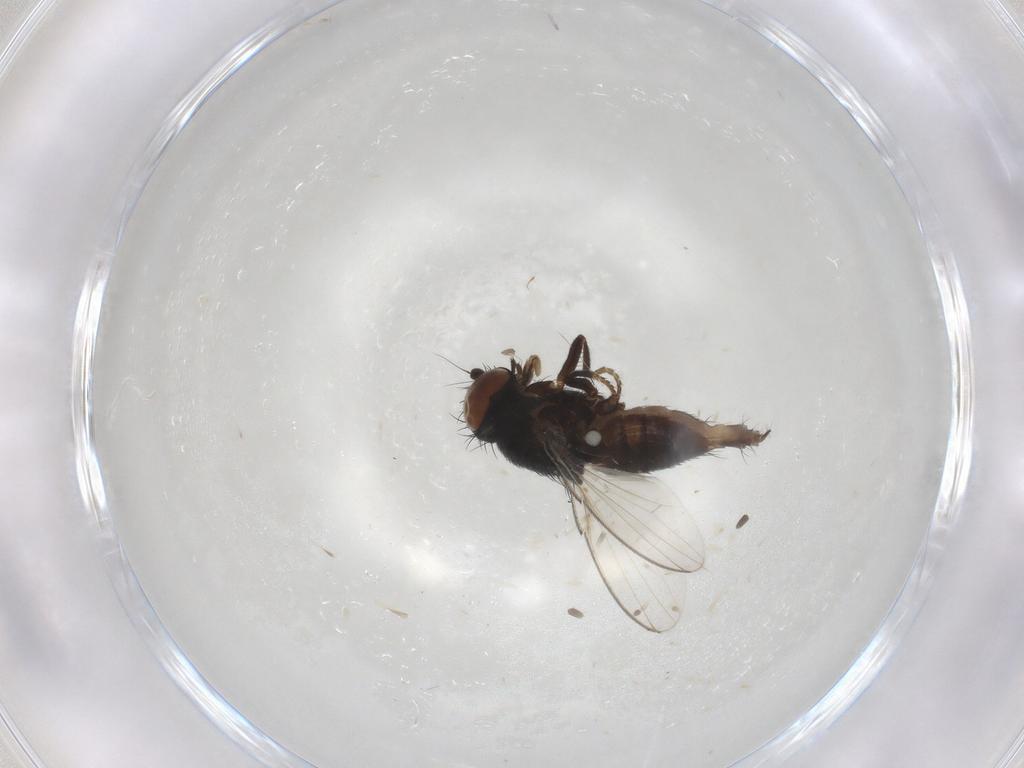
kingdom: Animalia
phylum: Arthropoda
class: Insecta
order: Diptera
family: Milichiidae
